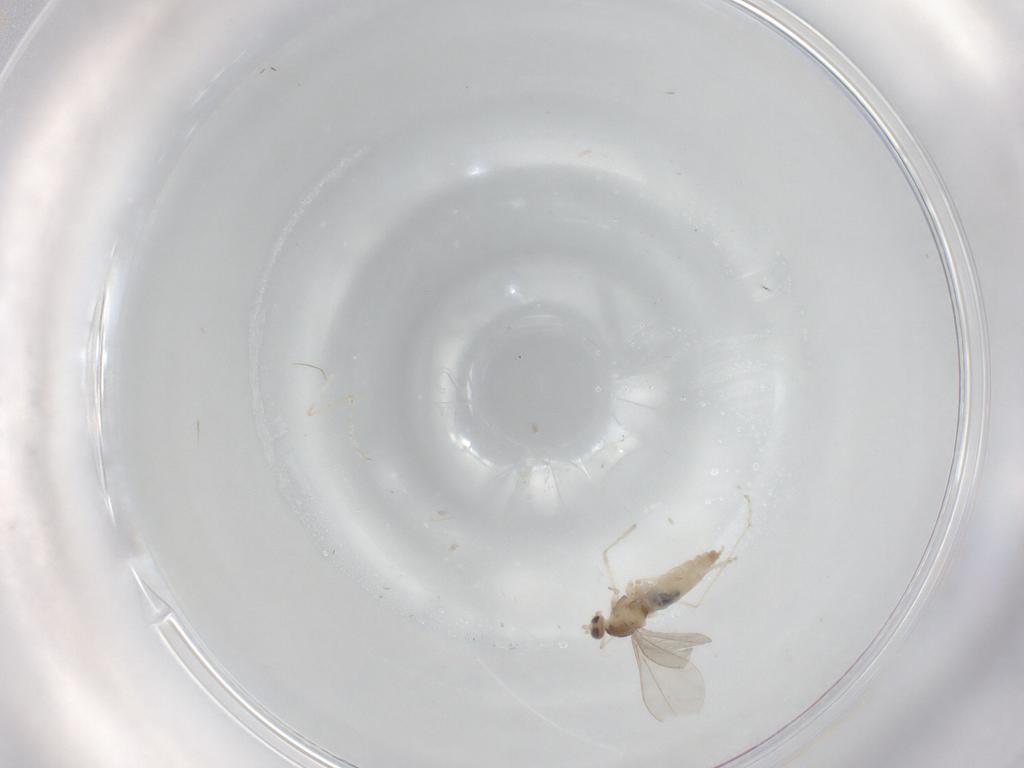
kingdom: Animalia
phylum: Arthropoda
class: Insecta
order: Diptera
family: Cecidomyiidae
